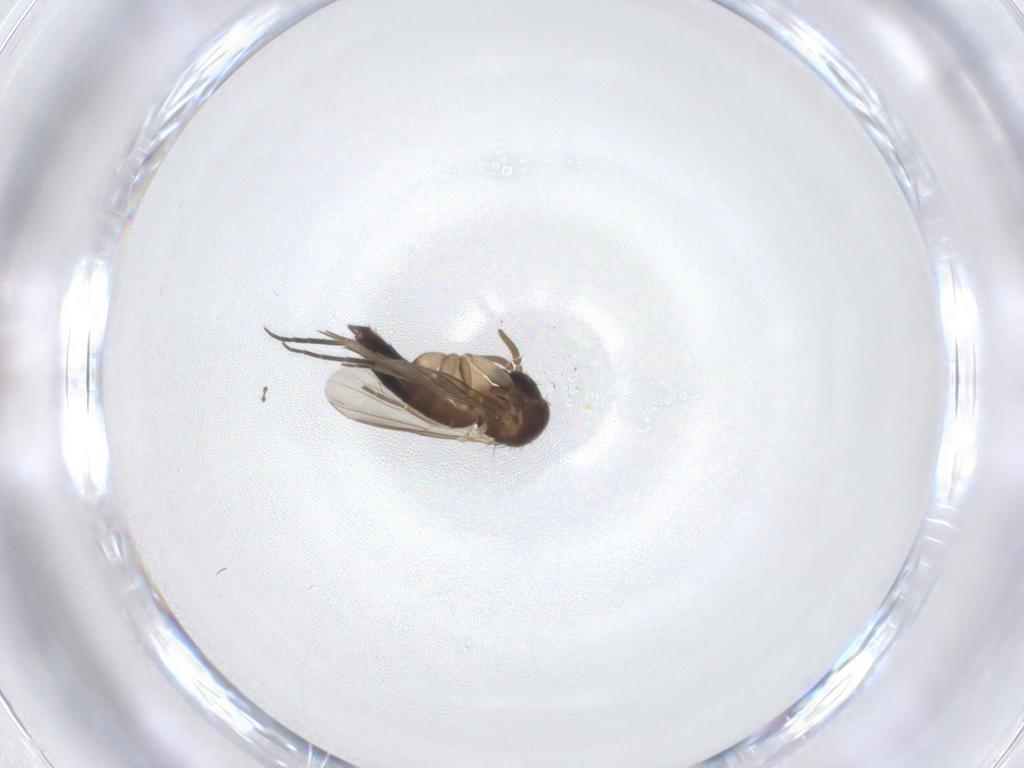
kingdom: Animalia
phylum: Arthropoda
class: Insecta
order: Diptera
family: Mycetophilidae
